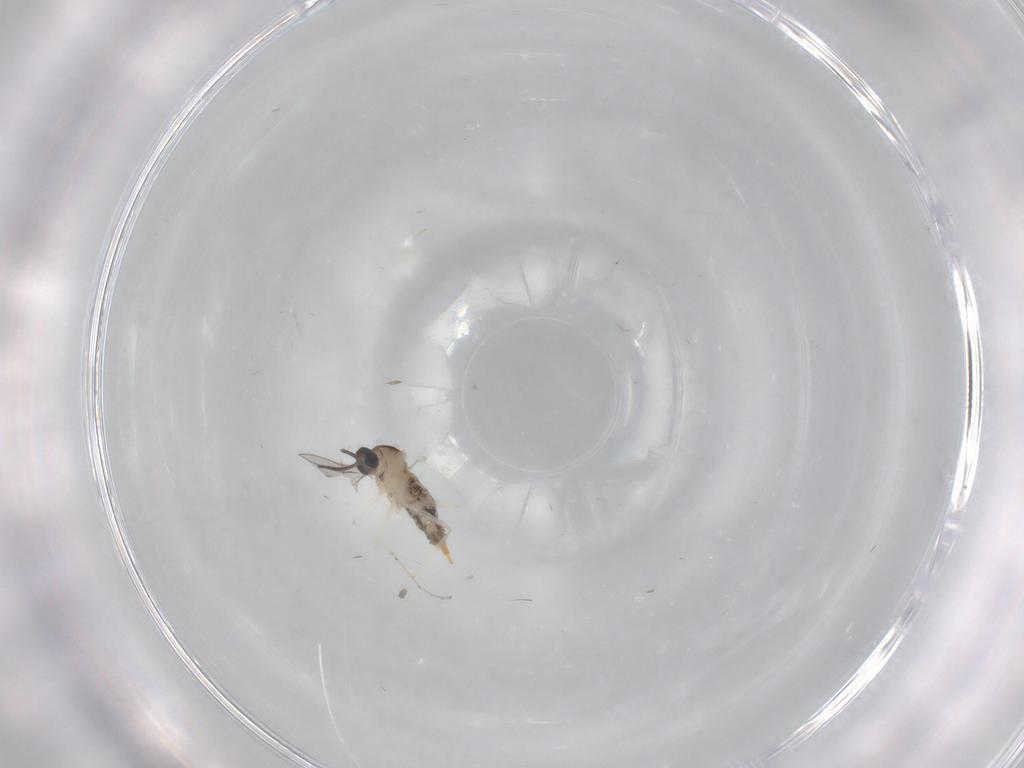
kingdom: Animalia
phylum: Arthropoda
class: Insecta
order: Diptera
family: Cecidomyiidae
